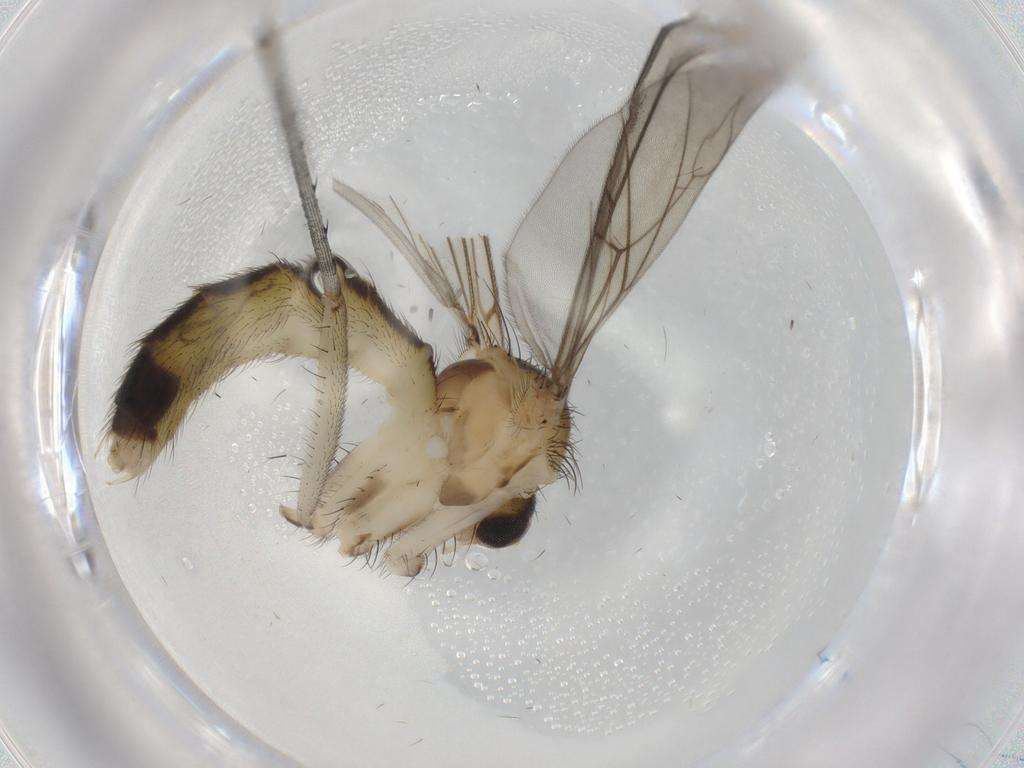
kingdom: Animalia
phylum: Arthropoda
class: Insecta
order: Diptera
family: Mycetophilidae
